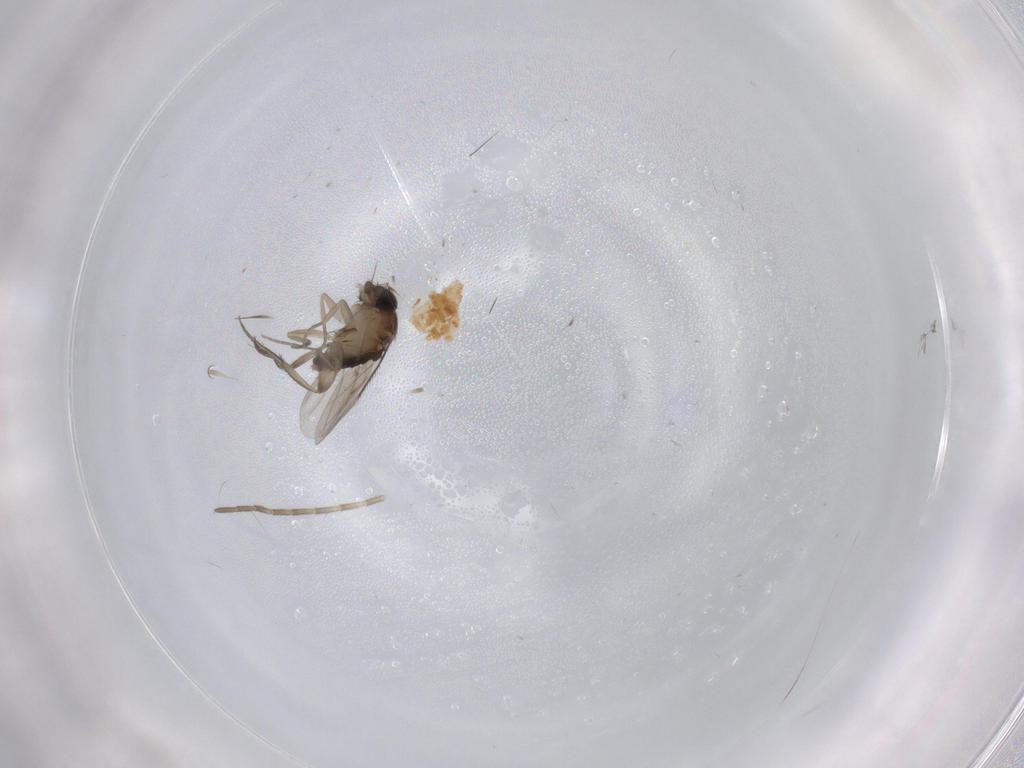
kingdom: Animalia
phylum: Arthropoda
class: Insecta
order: Diptera
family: Phoridae
